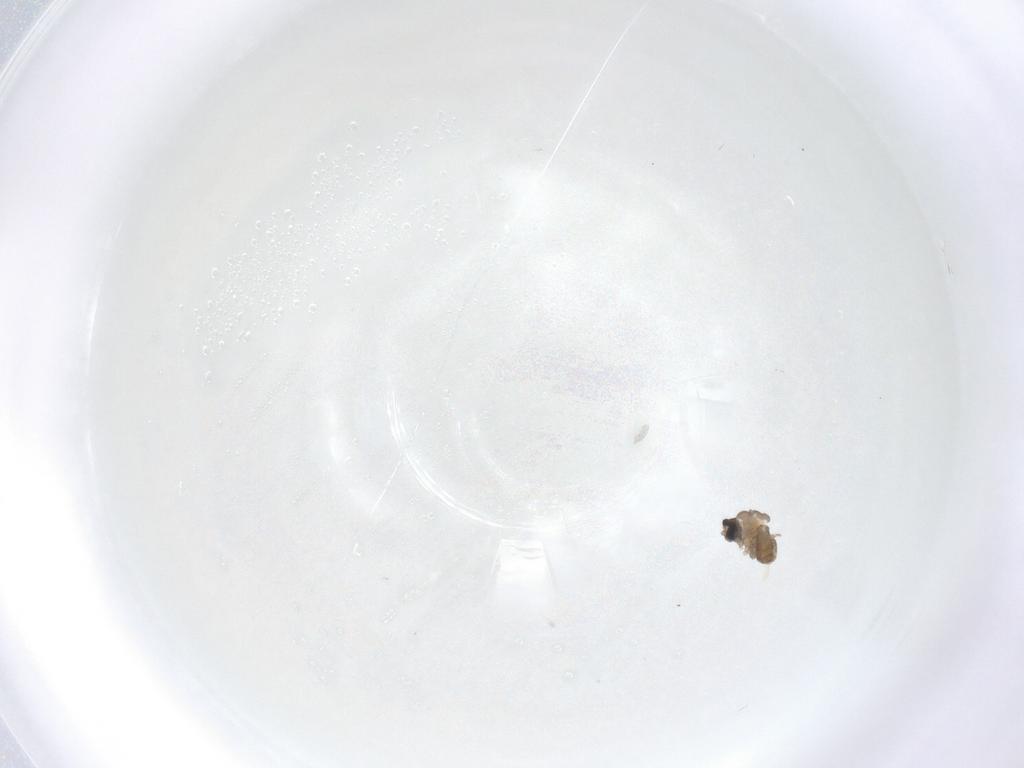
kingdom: Animalia
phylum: Arthropoda
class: Insecta
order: Diptera
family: Cecidomyiidae
